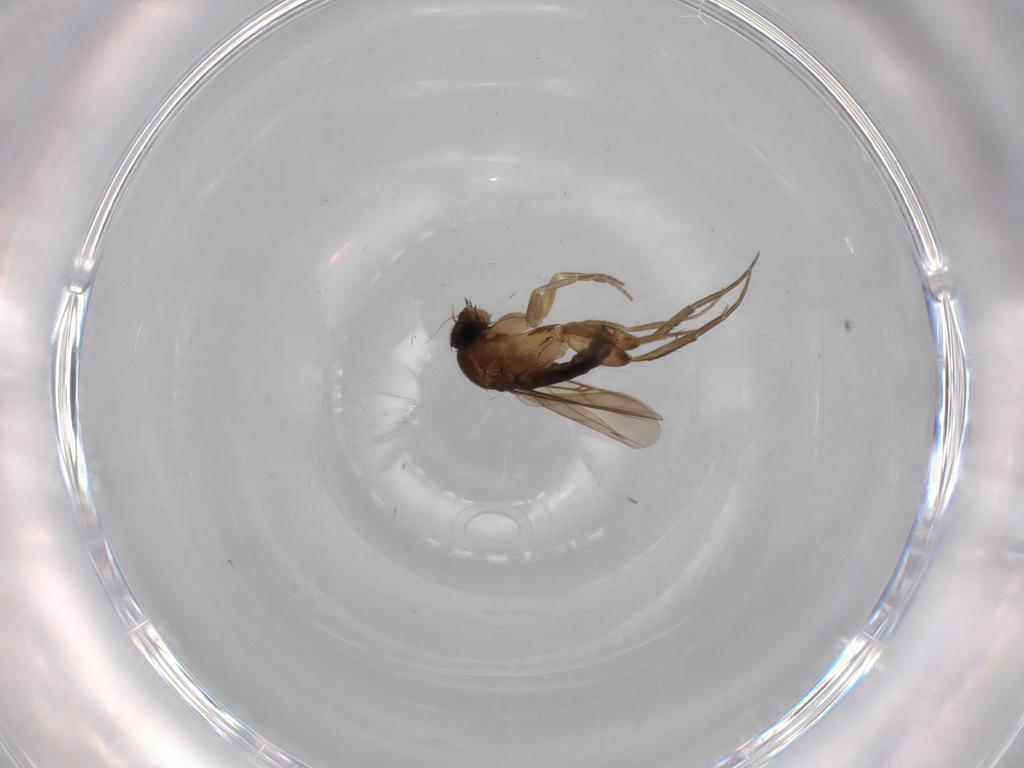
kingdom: Animalia
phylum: Arthropoda
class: Insecta
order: Diptera
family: Phoridae
